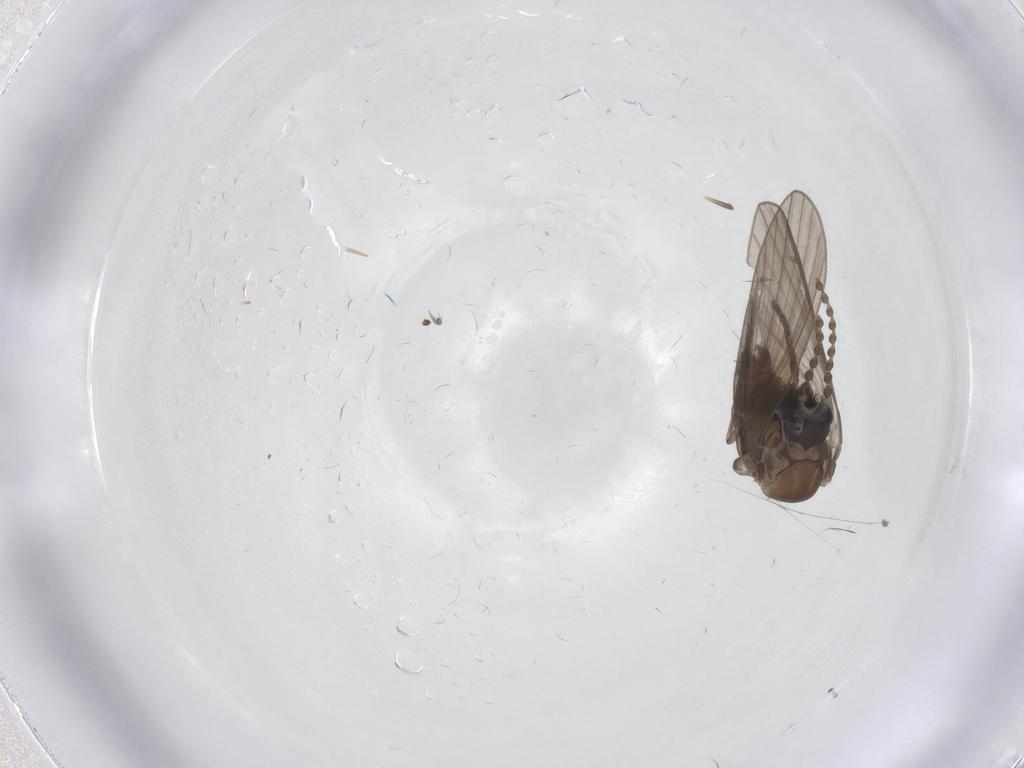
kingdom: Animalia
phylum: Arthropoda
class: Insecta
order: Diptera
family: Psychodidae
